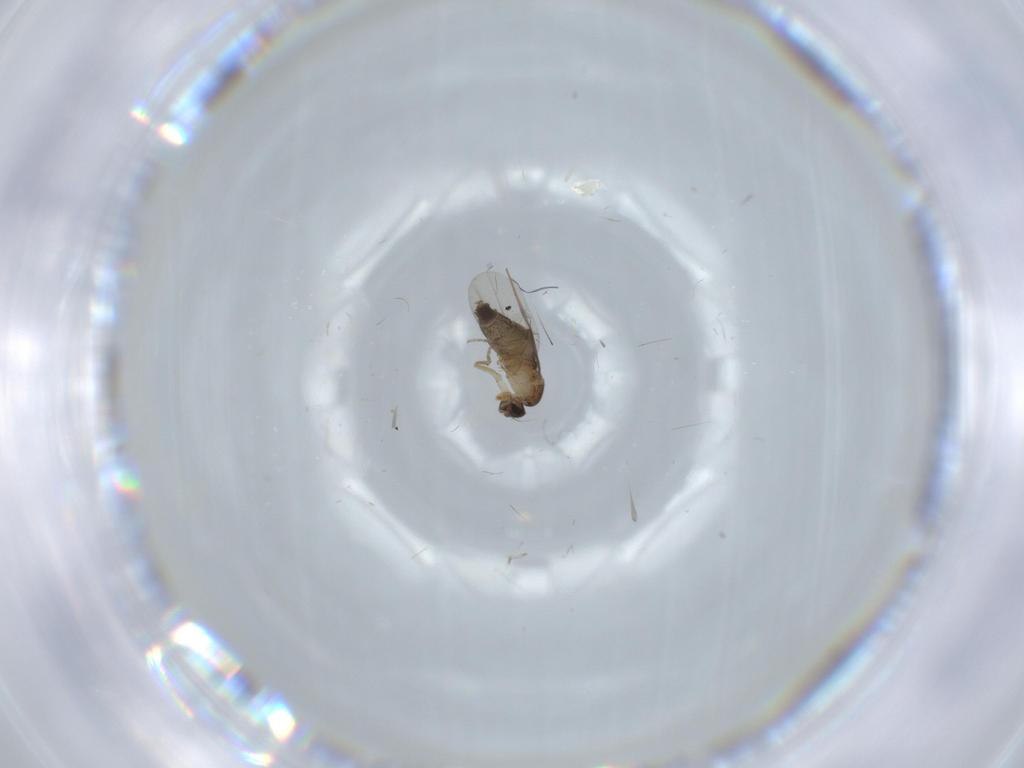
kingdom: Animalia
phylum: Arthropoda
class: Insecta
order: Diptera
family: Phoridae
